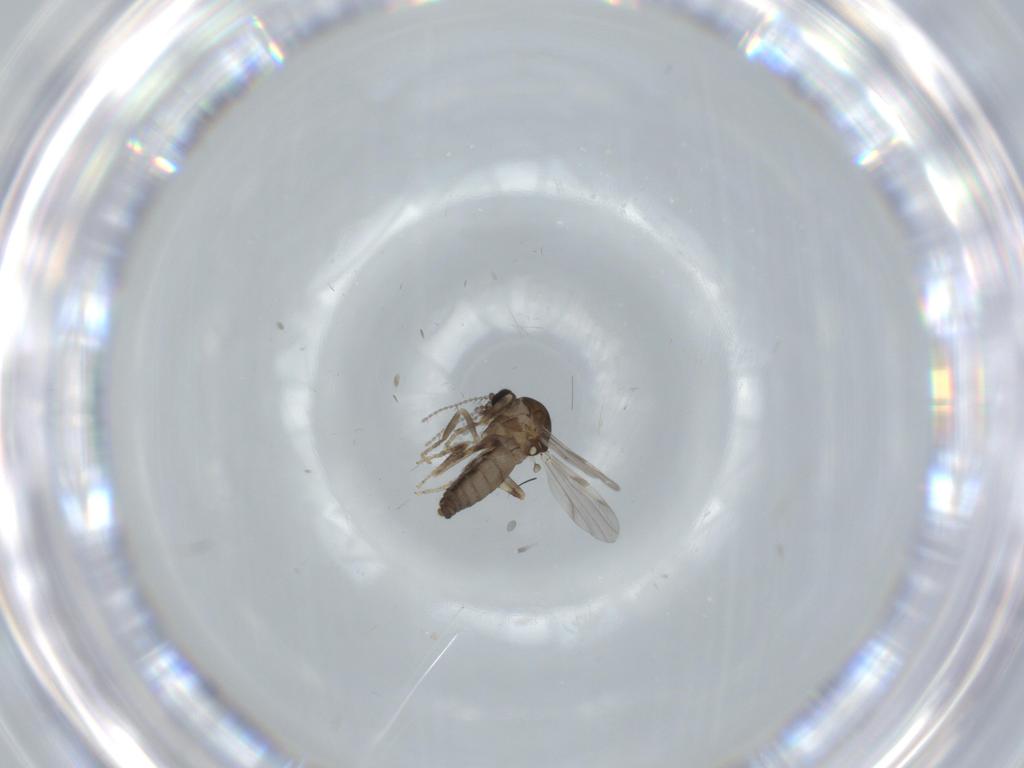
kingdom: Animalia
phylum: Arthropoda
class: Insecta
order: Diptera
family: Ceratopogonidae
